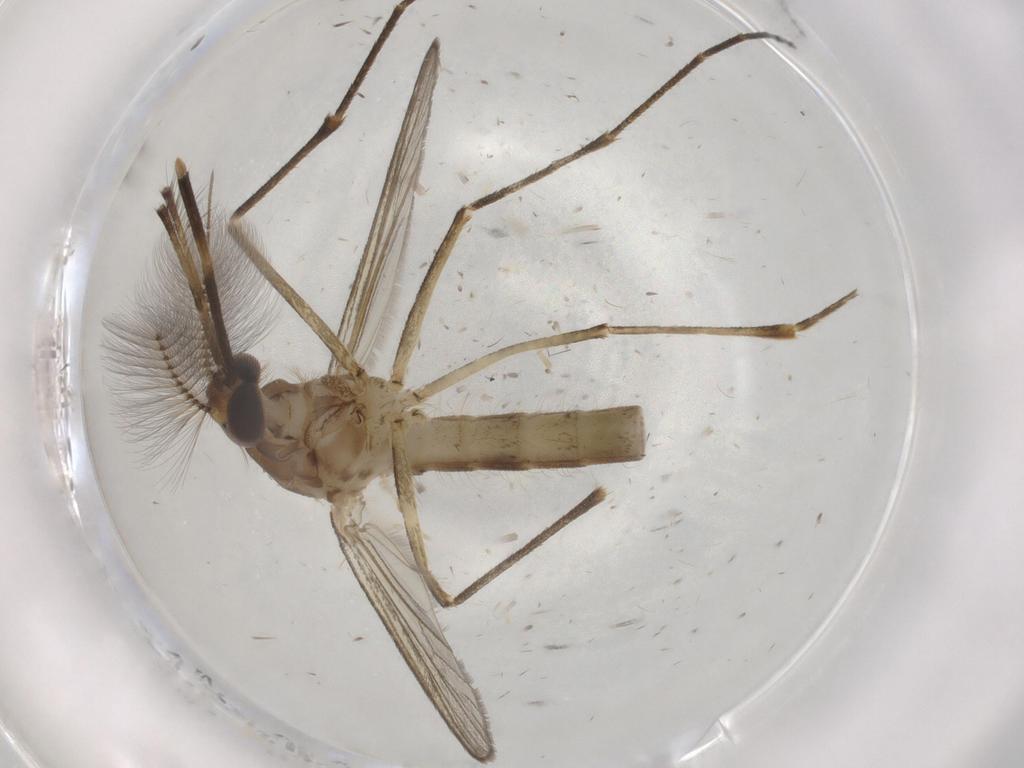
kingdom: Animalia
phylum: Arthropoda
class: Insecta
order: Diptera
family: Culicidae
